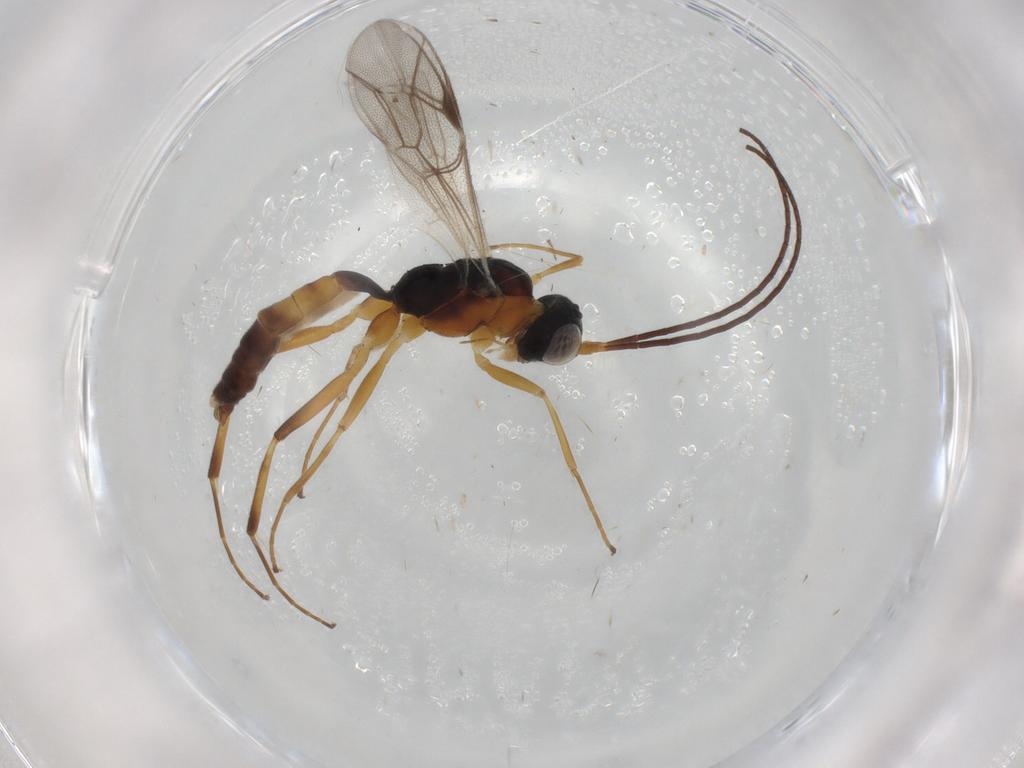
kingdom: Animalia
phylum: Arthropoda
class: Insecta
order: Hymenoptera
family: Ichneumonidae
